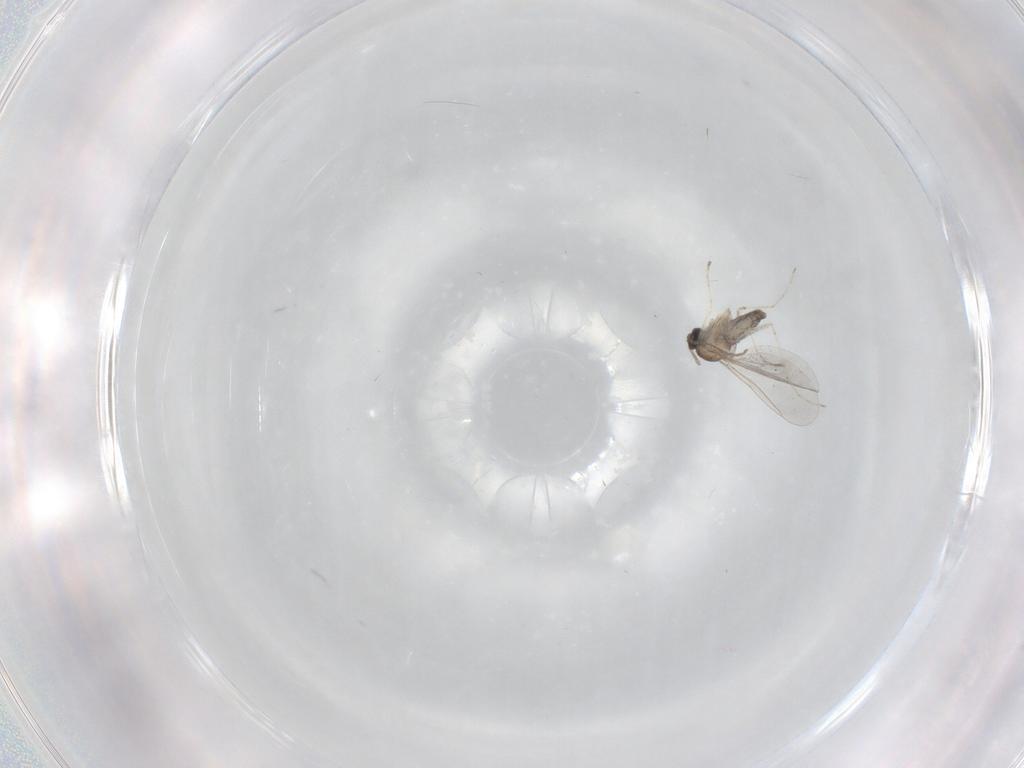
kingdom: Animalia
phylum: Arthropoda
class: Insecta
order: Diptera
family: Cecidomyiidae
